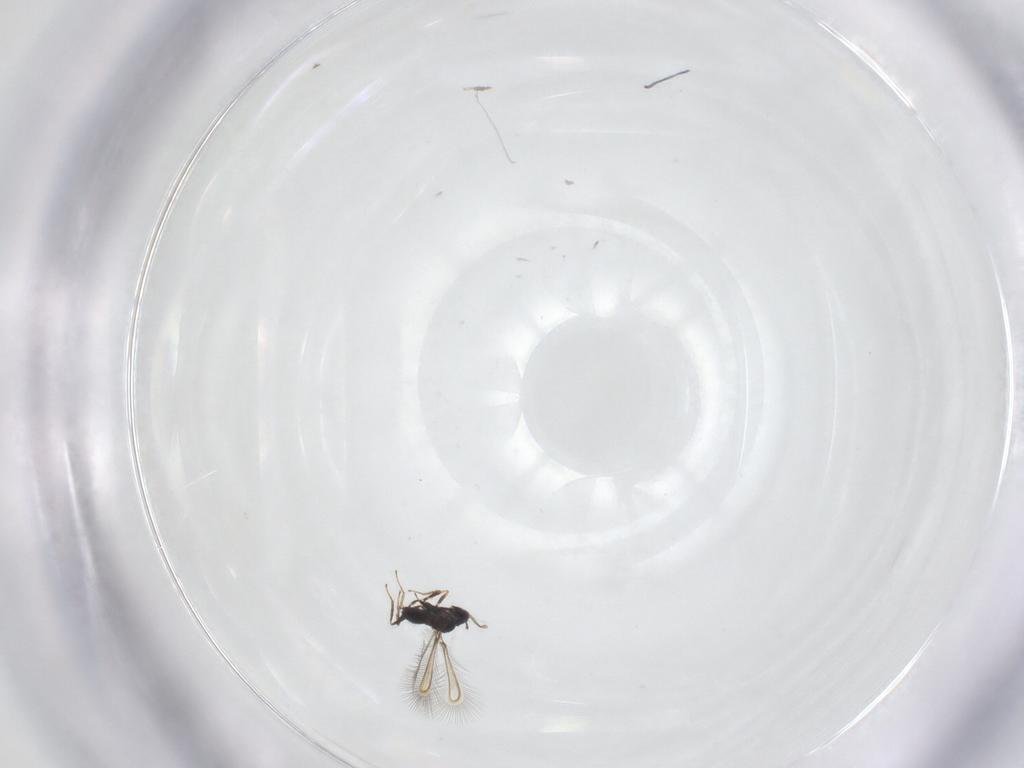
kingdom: Animalia
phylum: Arthropoda
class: Insecta
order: Hymenoptera
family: Mymaridae
